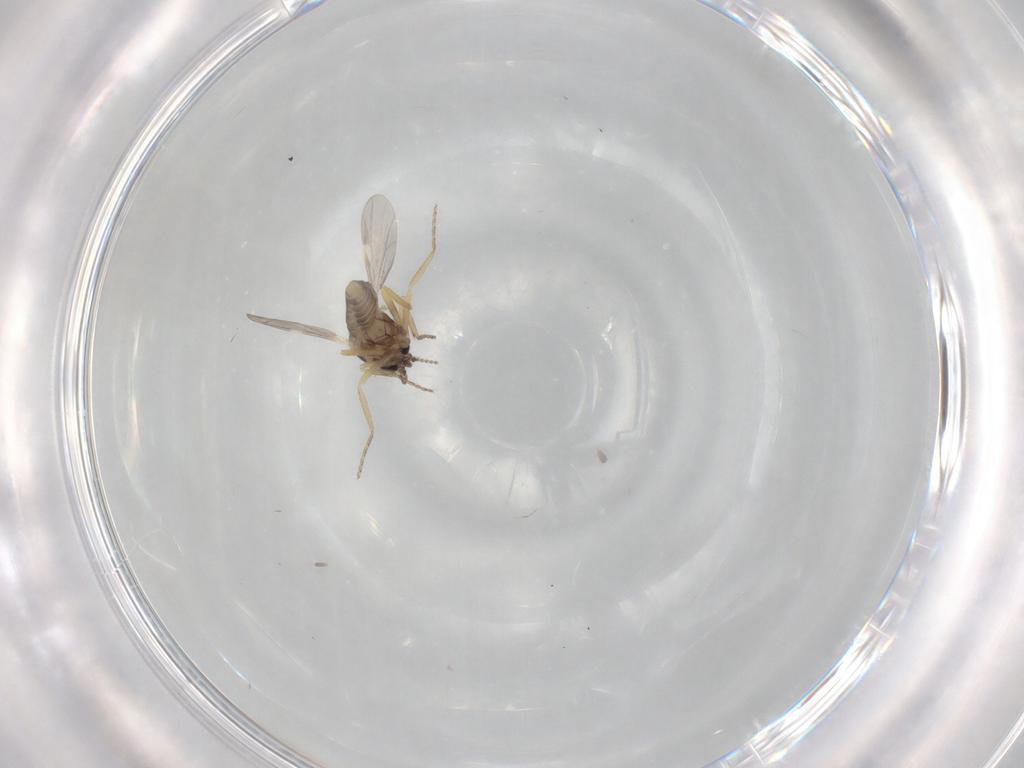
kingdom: Animalia
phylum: Arthropoda
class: Insecta
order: Diptera
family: Ceratopogonidae
